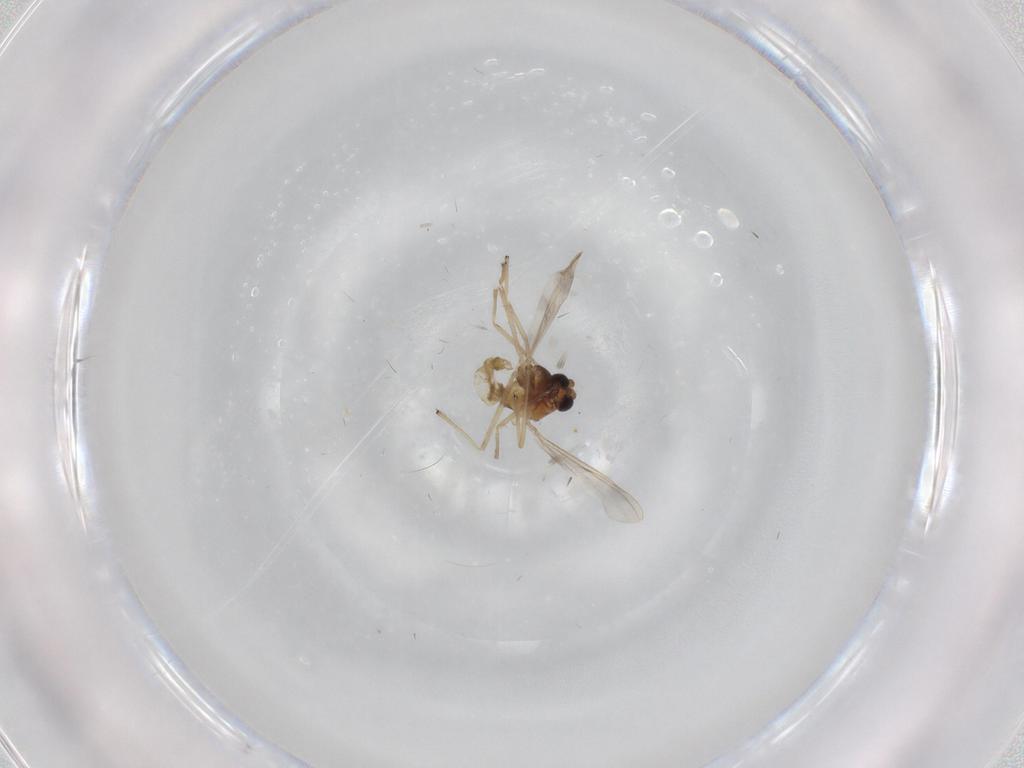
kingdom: Animalia
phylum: Arthropoda
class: Insecta
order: Diptera
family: Chironomidae
